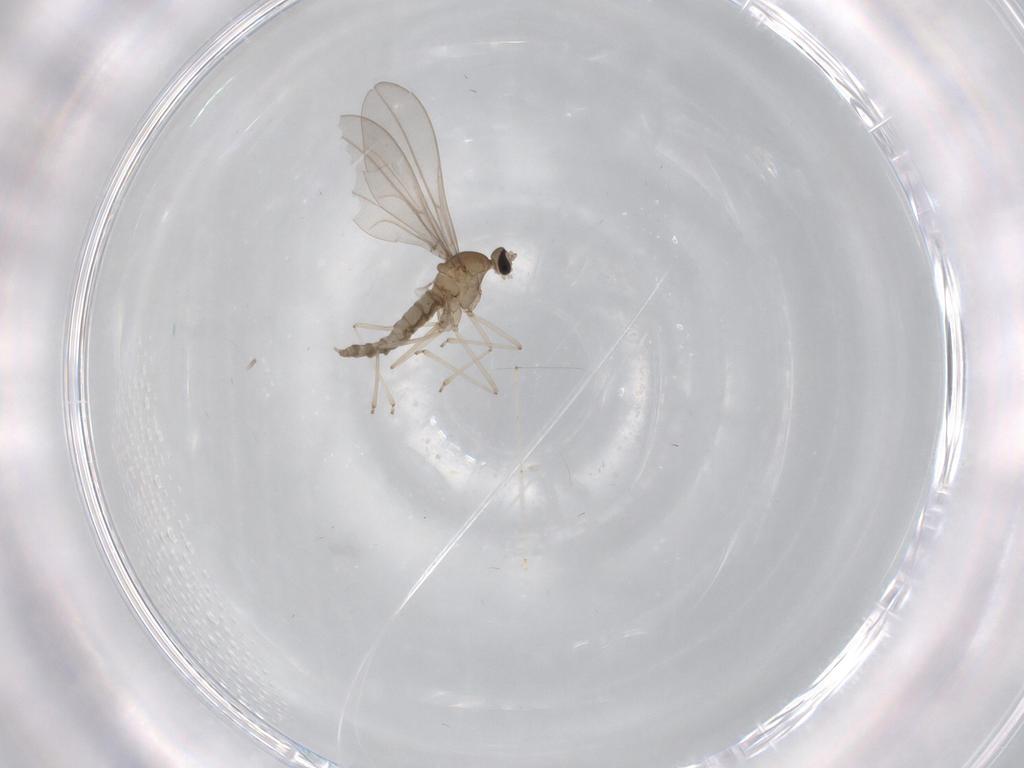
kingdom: Animalia
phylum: Arthropoda
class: Insecta
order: Diptera
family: Cecidomyiidae
